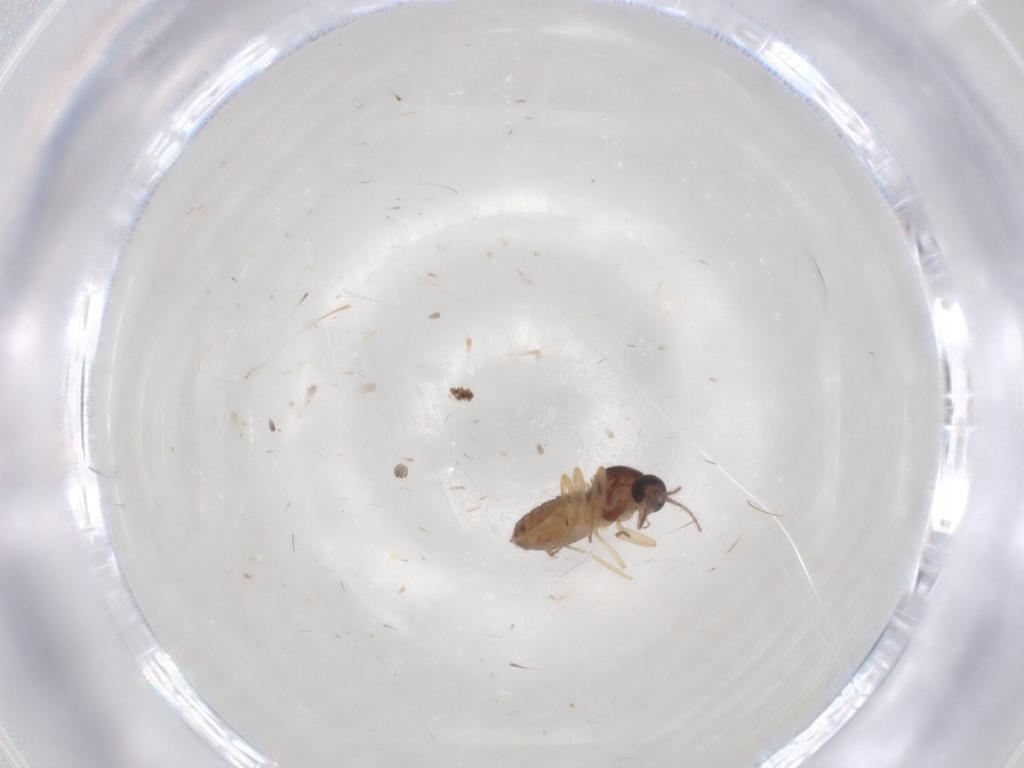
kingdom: Animalia
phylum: Arthropoda
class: Insecta
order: Diptera
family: Ceratopogonidae
